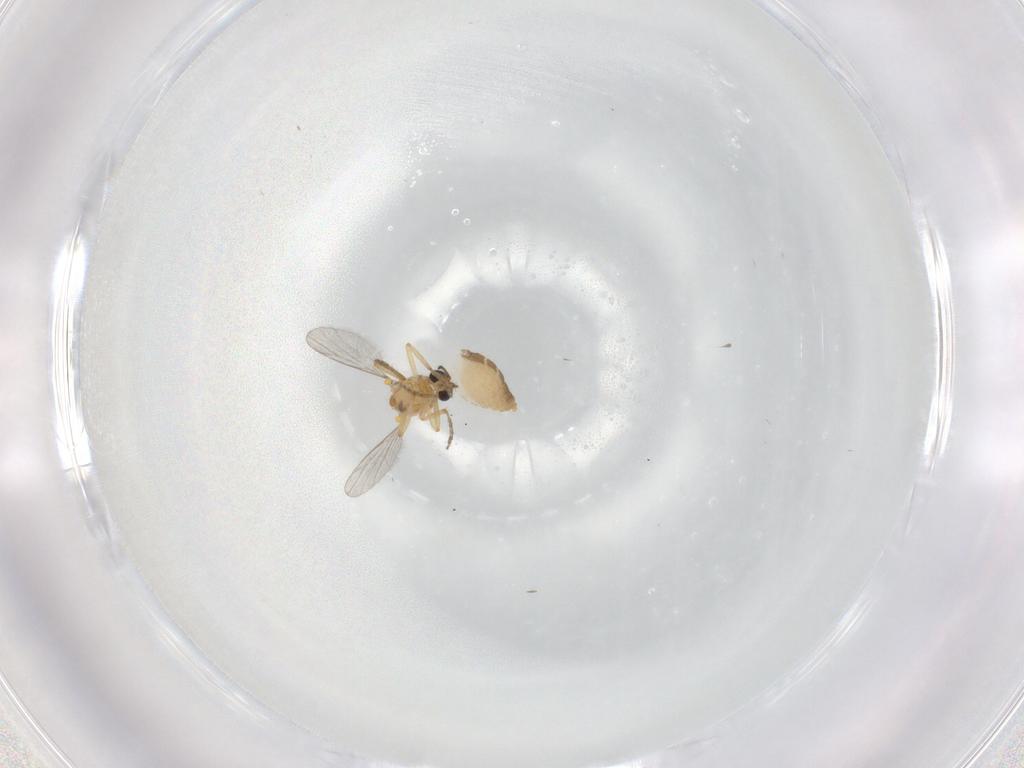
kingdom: Animalia
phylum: Arthropoda
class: Insecta
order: Diptera
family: Ceratopogonidae
